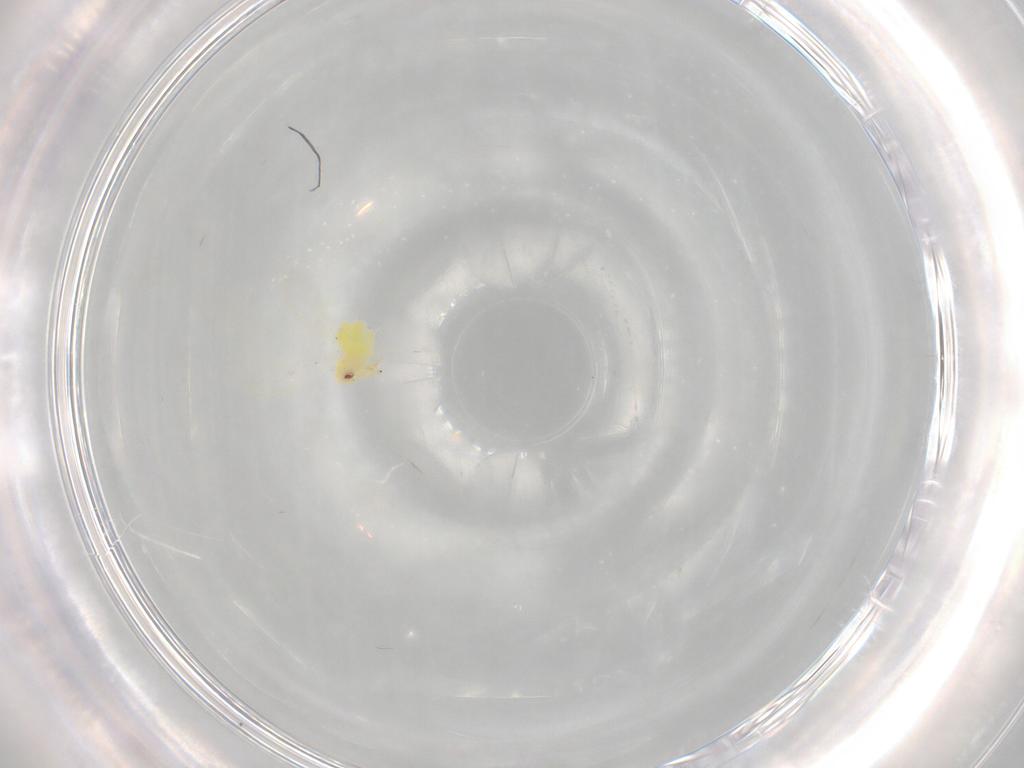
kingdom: Animalia
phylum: Arthropoda
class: Insecta
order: Hemiptera
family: Aleyrodidae
